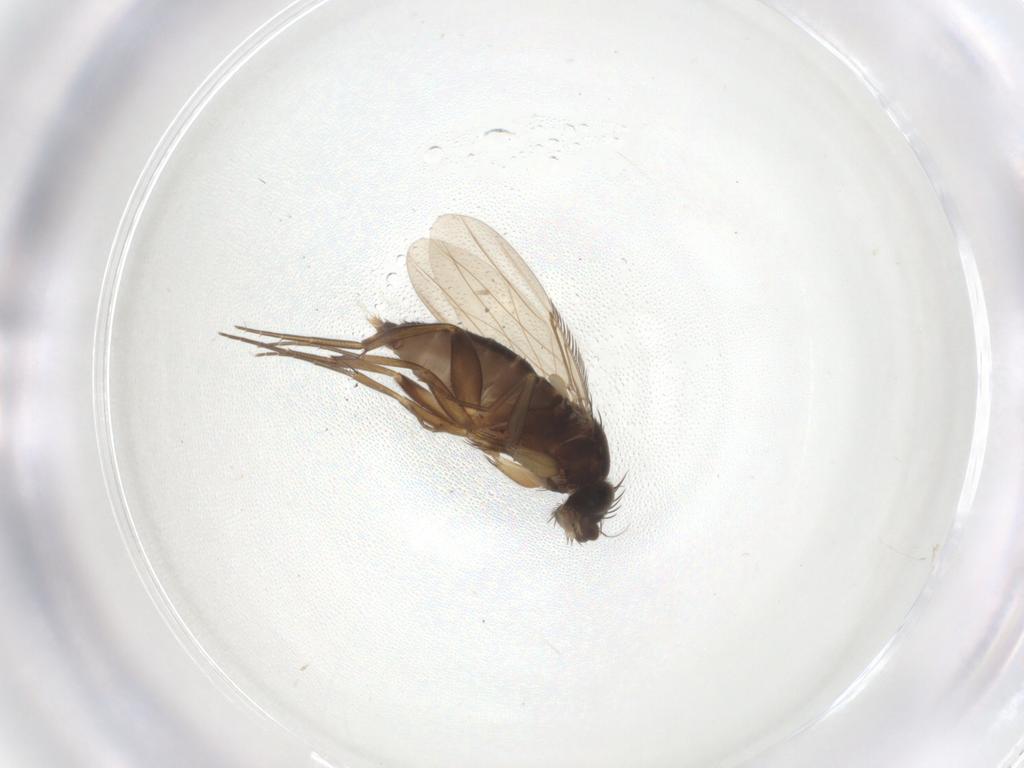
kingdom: Animalia
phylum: Arthropoda
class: Insecta
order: Diptera
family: Phoridae
